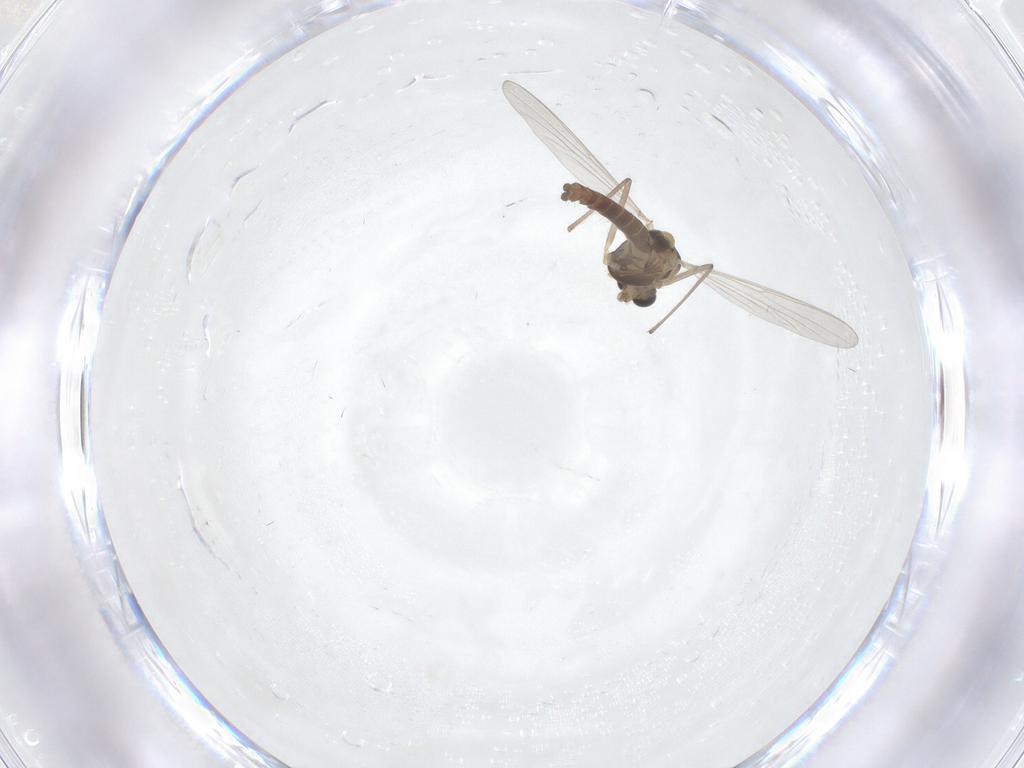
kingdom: Animalia
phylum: Arthropoda
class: Insecta
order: Diptera
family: Chironomidae
